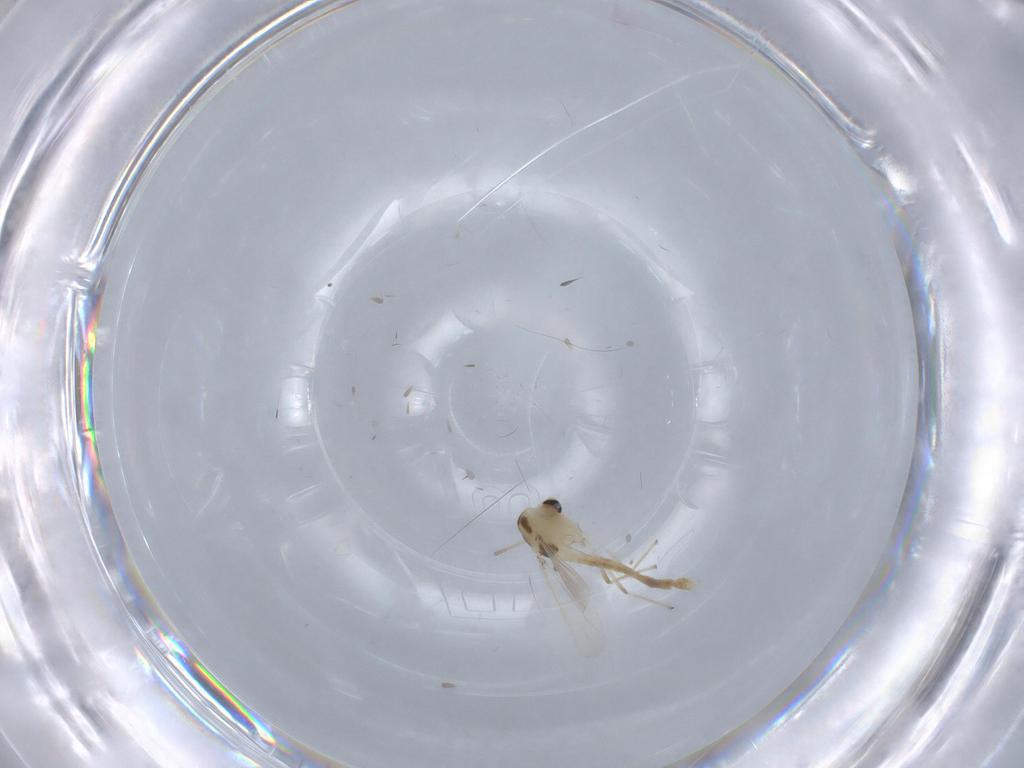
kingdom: Animalia
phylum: Arthropoda
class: Insecta
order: Diptera
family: Chironomidae
